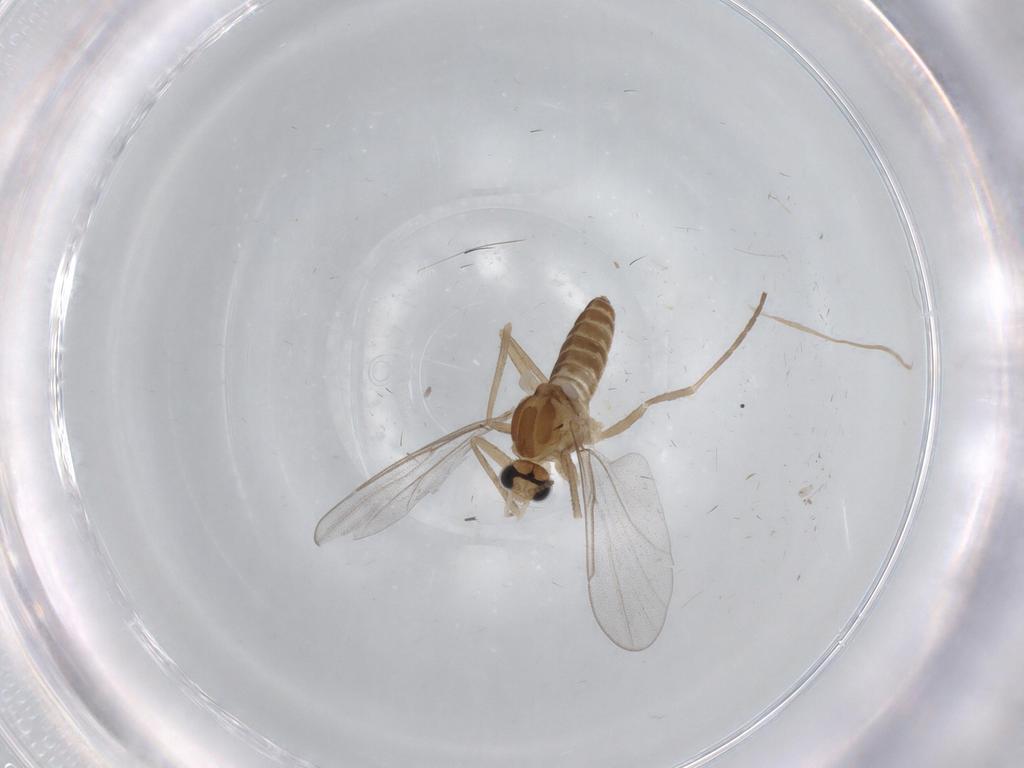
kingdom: Animalia
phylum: Arthropoda
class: Insecta
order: Diptera
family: Cecidomyiidae
